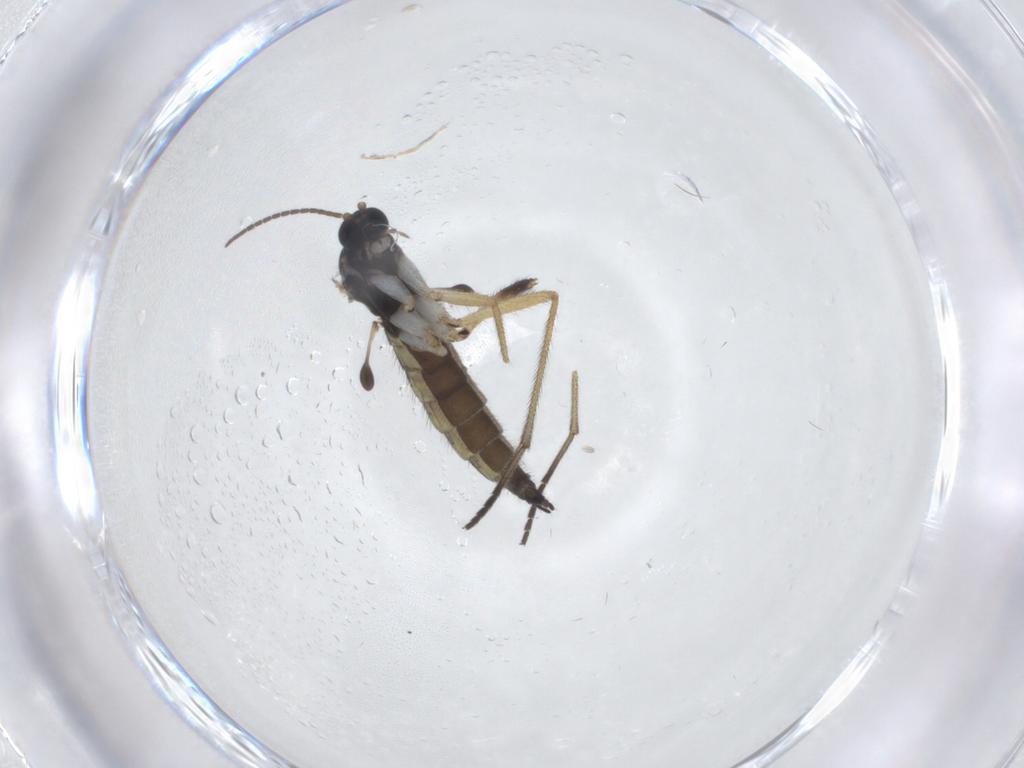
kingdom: Animalia
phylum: Arthropoda
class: Insecta
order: Diptera
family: Sciaridae
